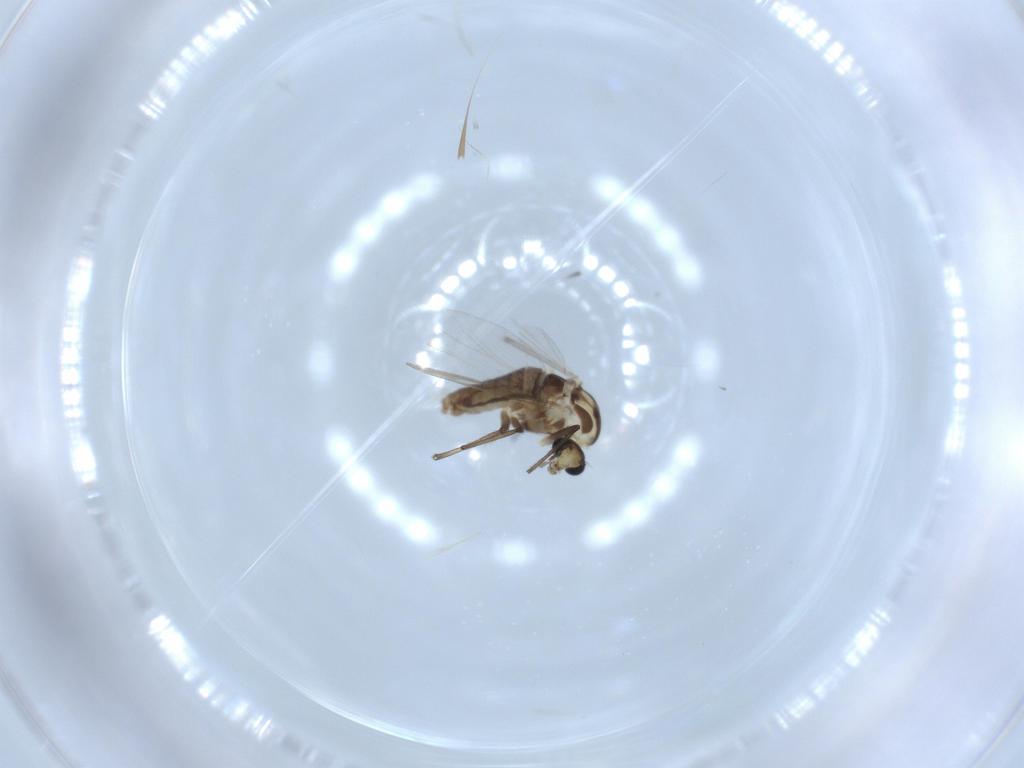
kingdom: Animalia
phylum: Arthropoda
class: Insecta
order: Diptera
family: Chironomidae
